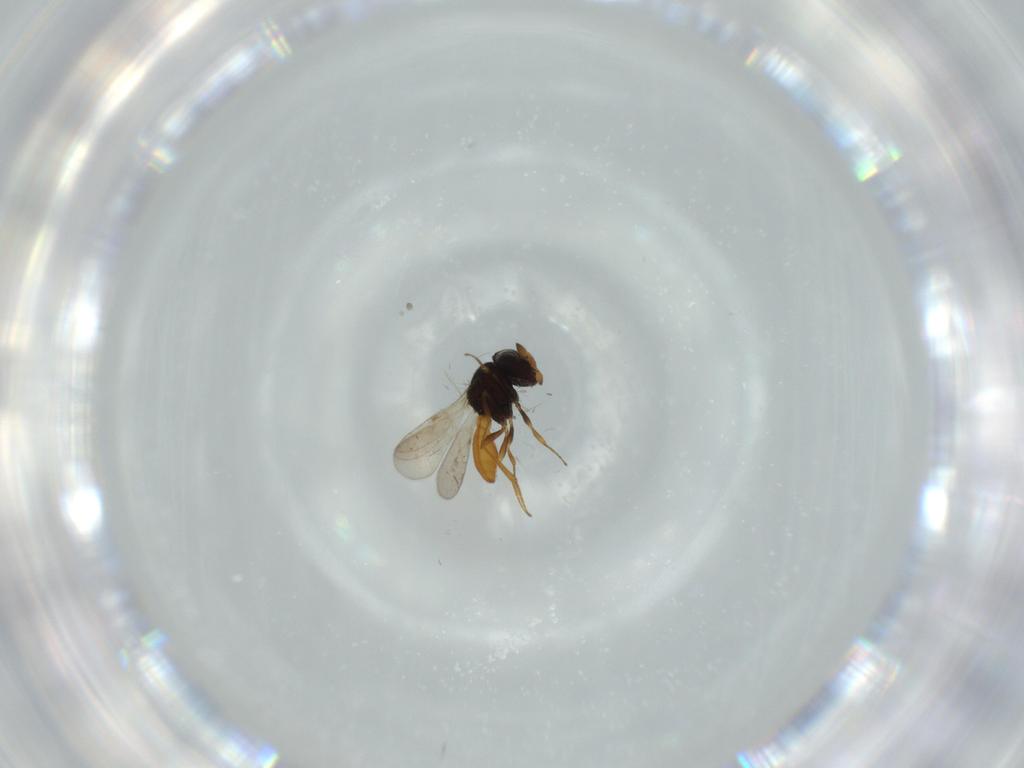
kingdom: Animalia
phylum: Arthropoda
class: Insecta
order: Hymenoptera
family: Scelionidae
